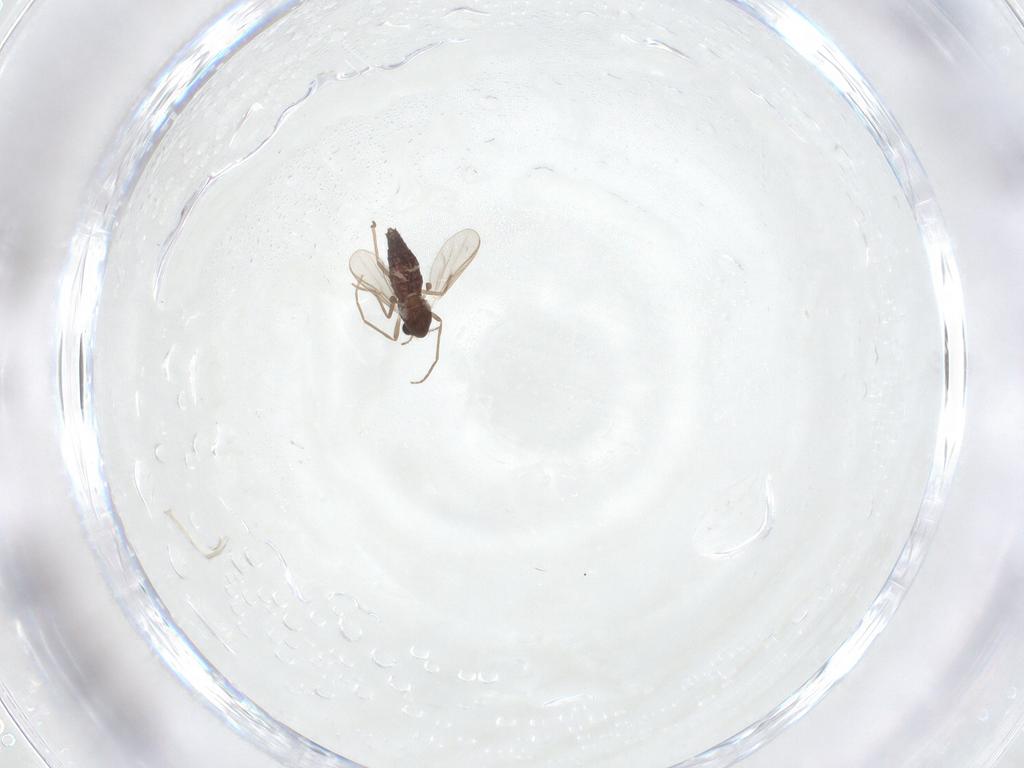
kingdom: Animalia
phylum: Arthropoda
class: Insecta
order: Diptera
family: Chironomidae
